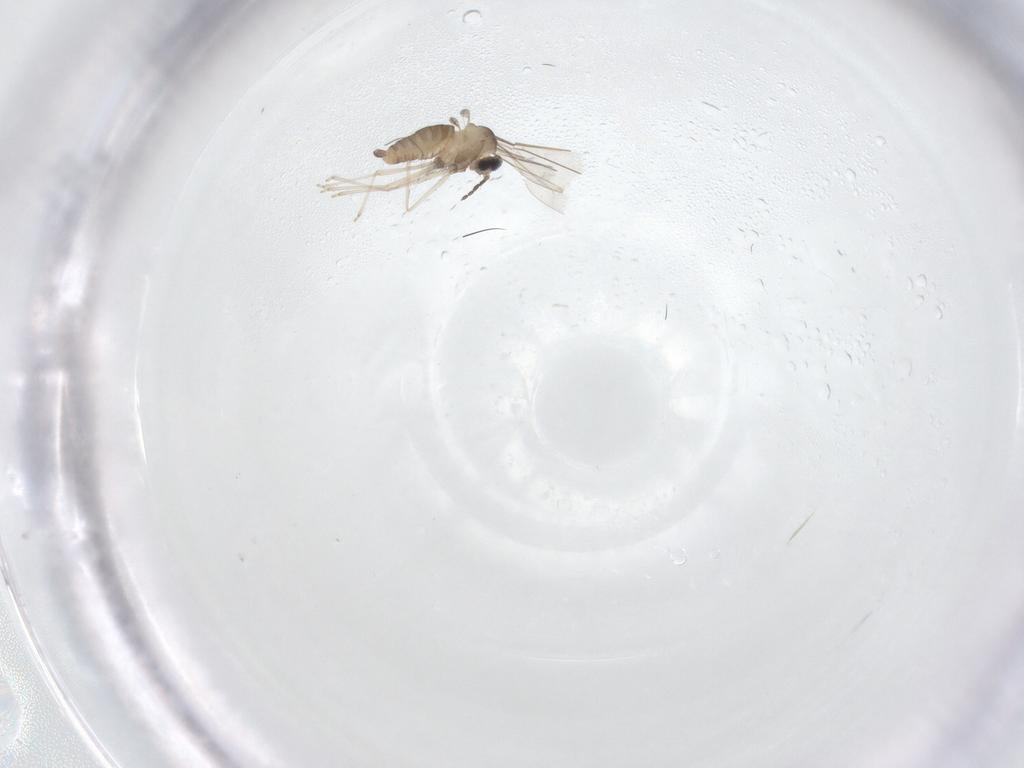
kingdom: Animalia
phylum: Arthropoda
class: Insecta
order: Diptera
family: Cecidomyiidae
